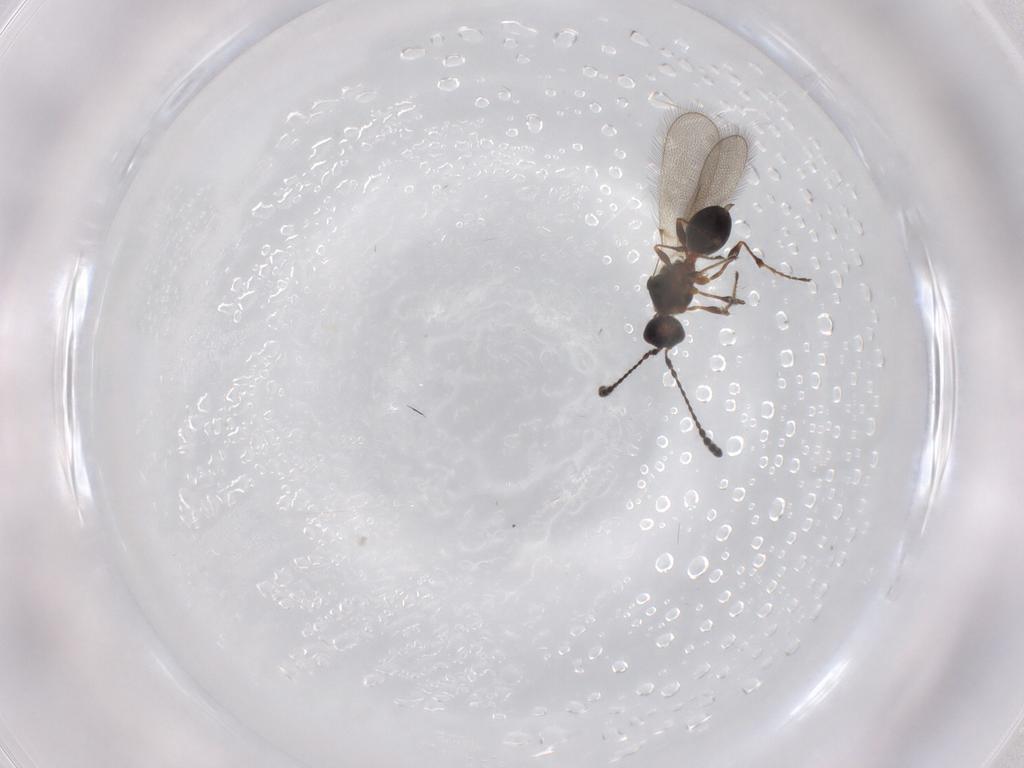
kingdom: Animalia
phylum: Arthropoda
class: Insecta
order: Hymenoptera
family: Diapriidae
